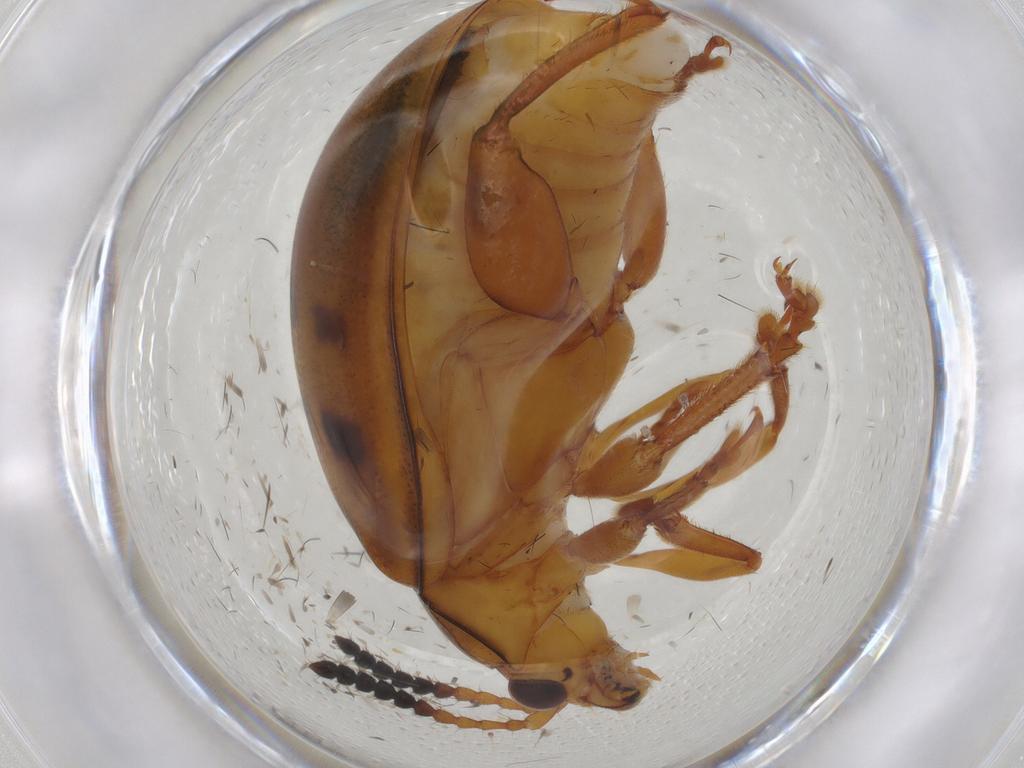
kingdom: Animalia
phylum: Arthropoda
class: Insecta
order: Coleoptera
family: Chrysomelidae
